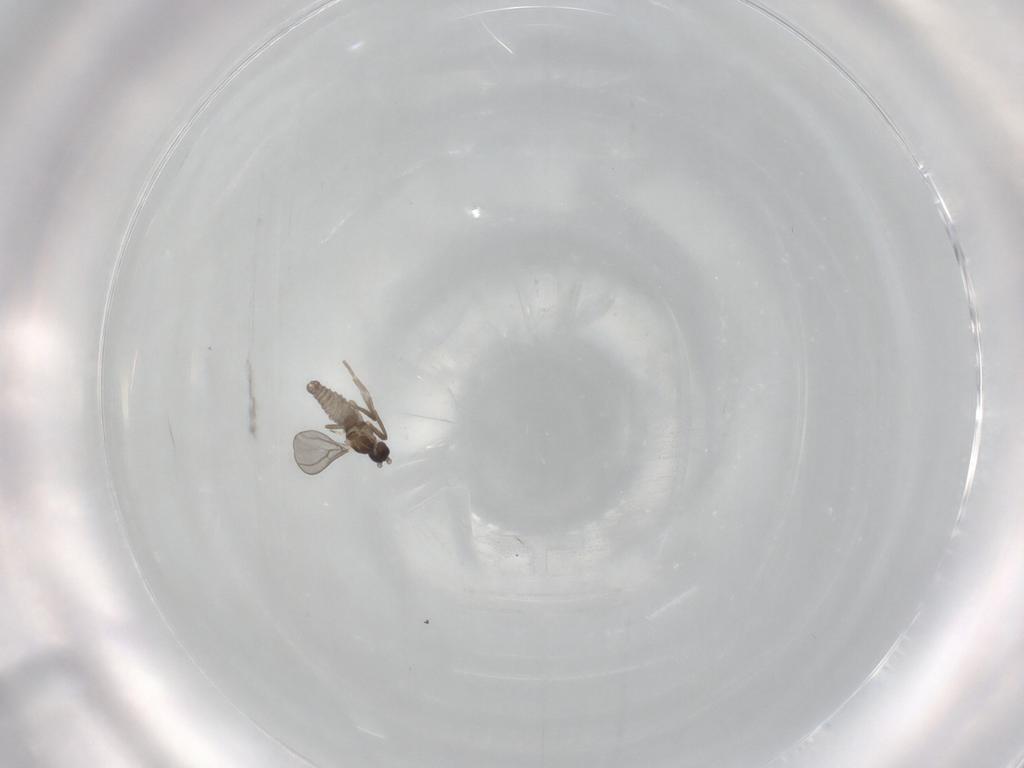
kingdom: Animalia
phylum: Arthropoda
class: Insecta
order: Diptera
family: Cecidomyiidae
